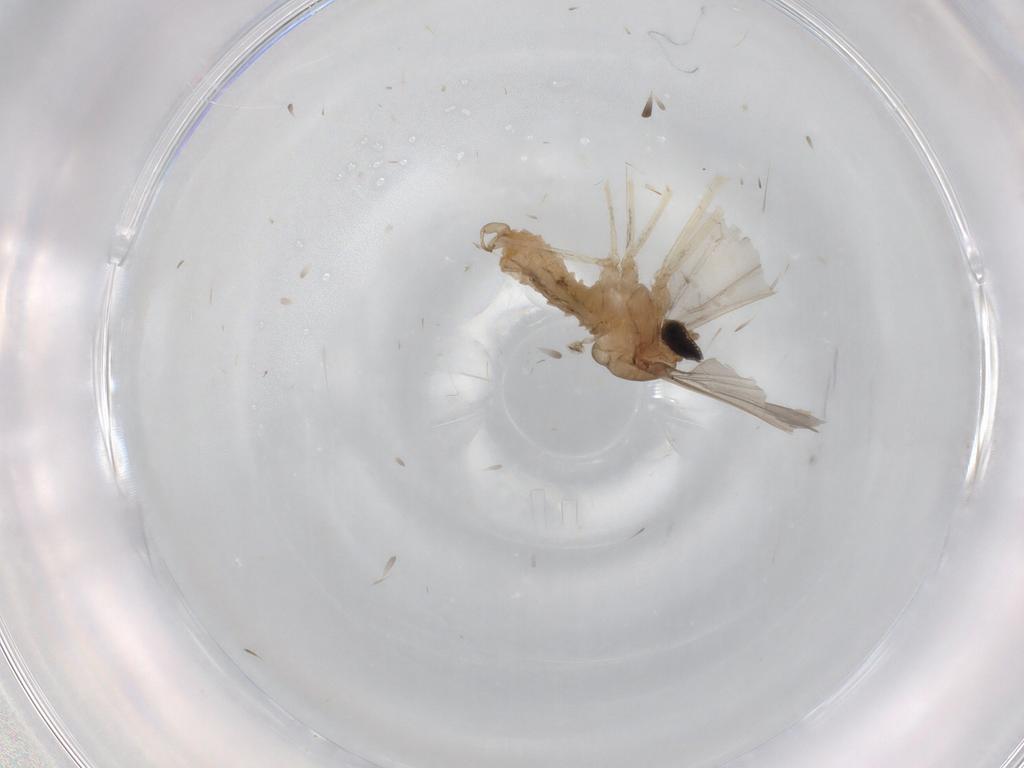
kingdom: Animalia
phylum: Arthropoda
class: Insecta
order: Diptera
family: Cecidomyiidae
